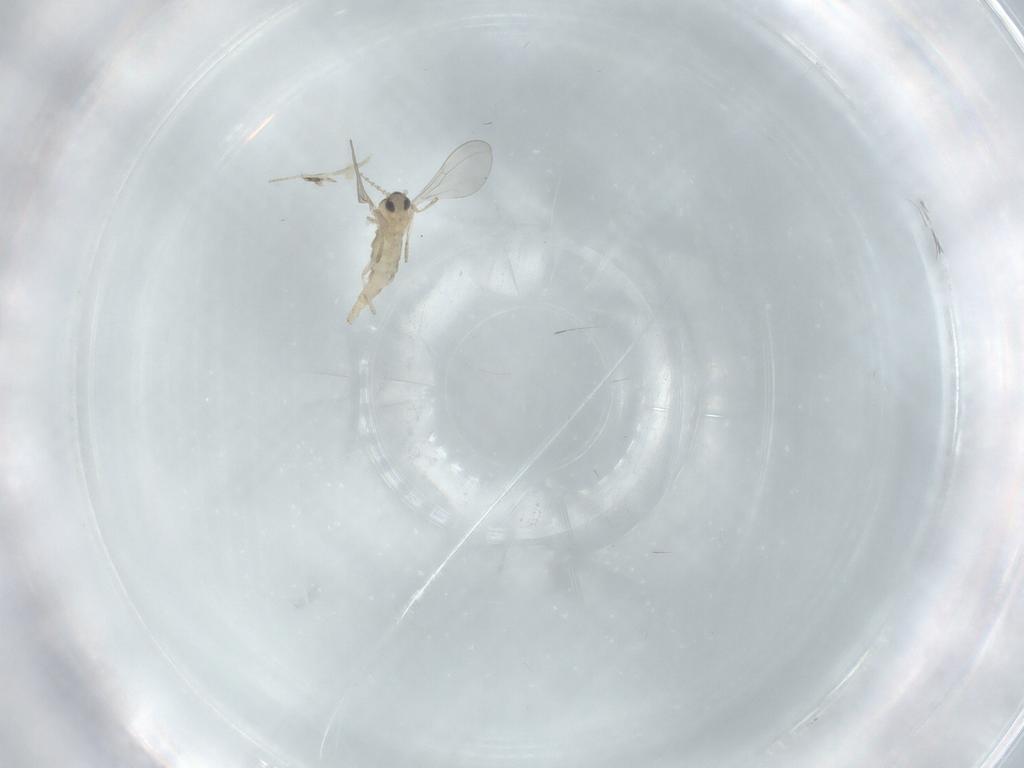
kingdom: Animalia
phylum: Arthropoda
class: Insecta
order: Diptera
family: Cecidomyiidae
